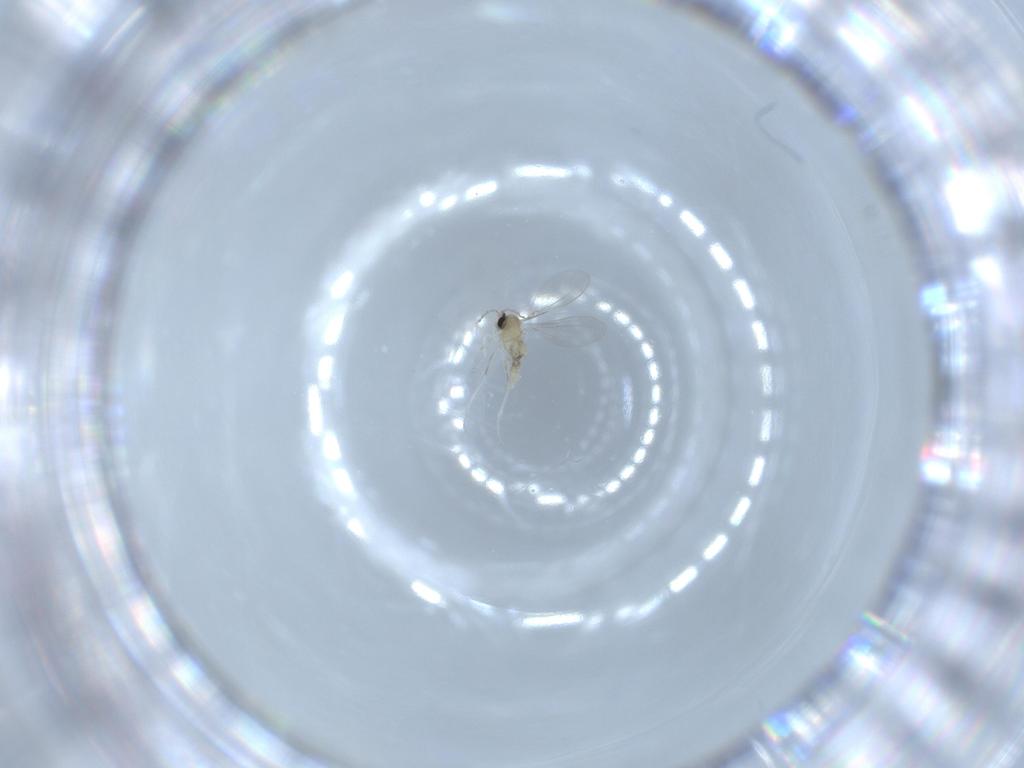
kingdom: Animalia
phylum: Arthropoda
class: Insecta
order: Diptera
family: Cecidomyiidae
